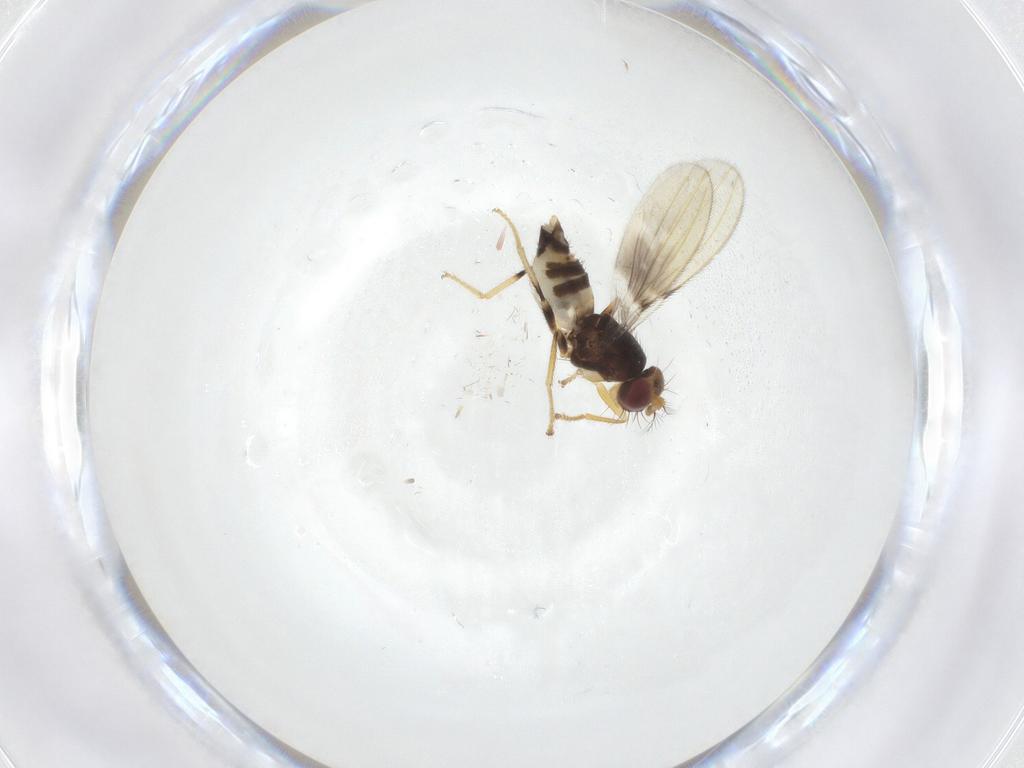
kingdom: Animalia
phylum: Arthropoda
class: Insecta
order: Diptera
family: Periscelididae
